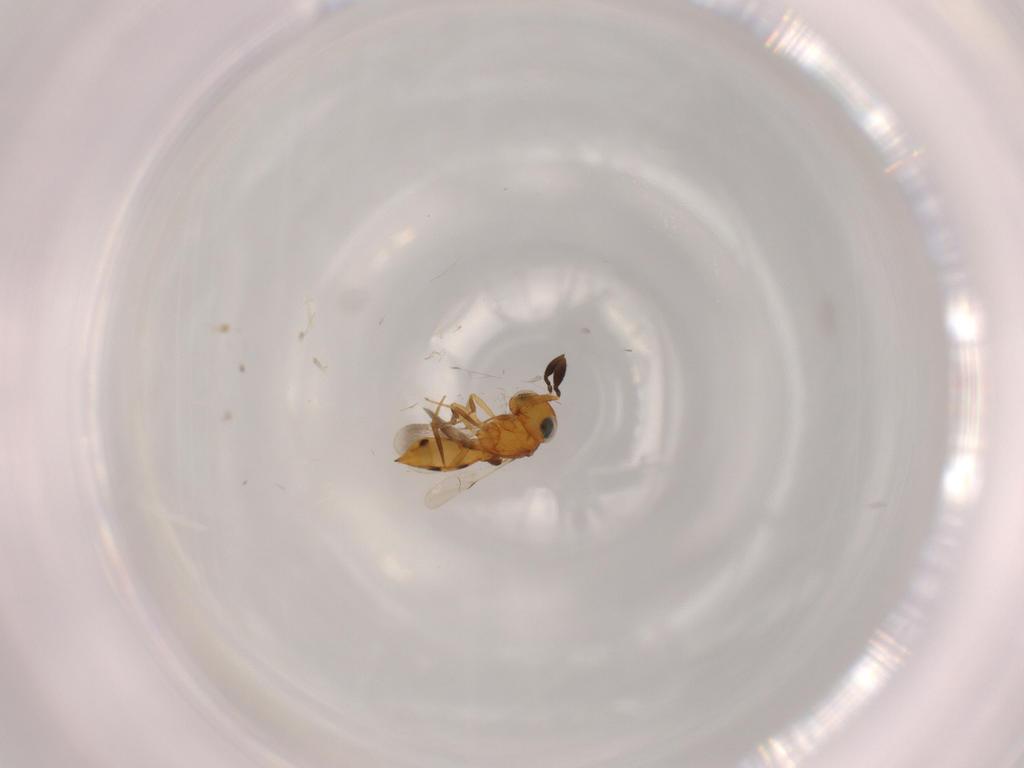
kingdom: Animalia
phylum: Arthropoda
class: Insecta
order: Hymenoptera
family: Scelionidae
